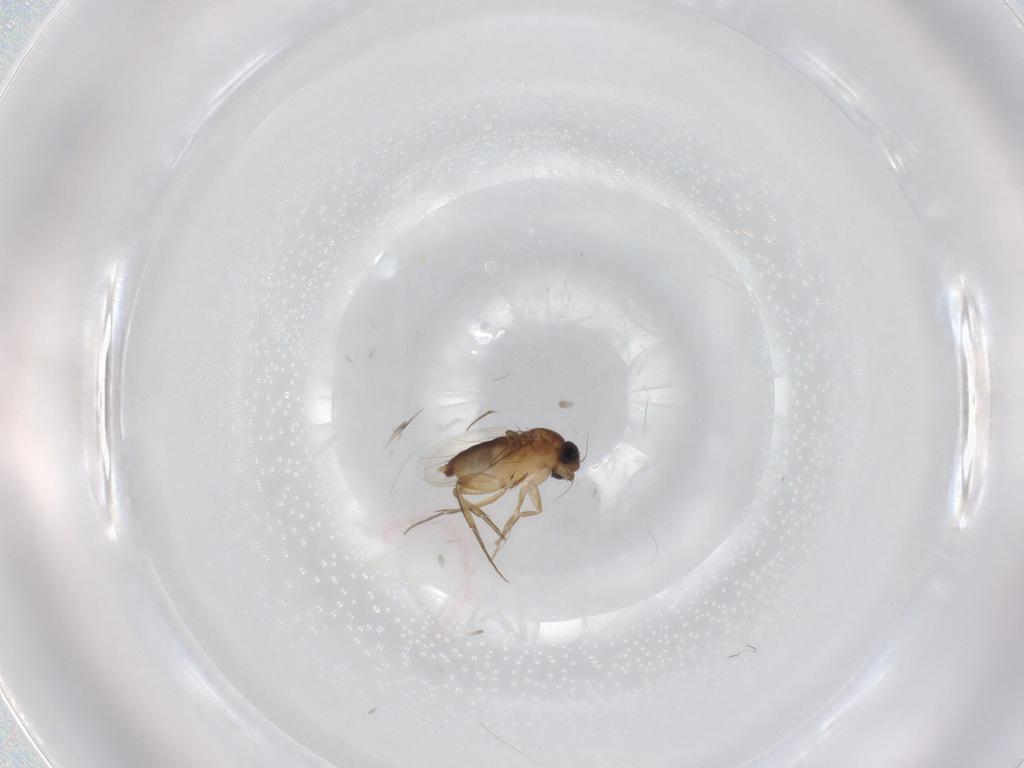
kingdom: Animalia
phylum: Arthropoda
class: Insecta
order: Diptera
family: Phoridae
